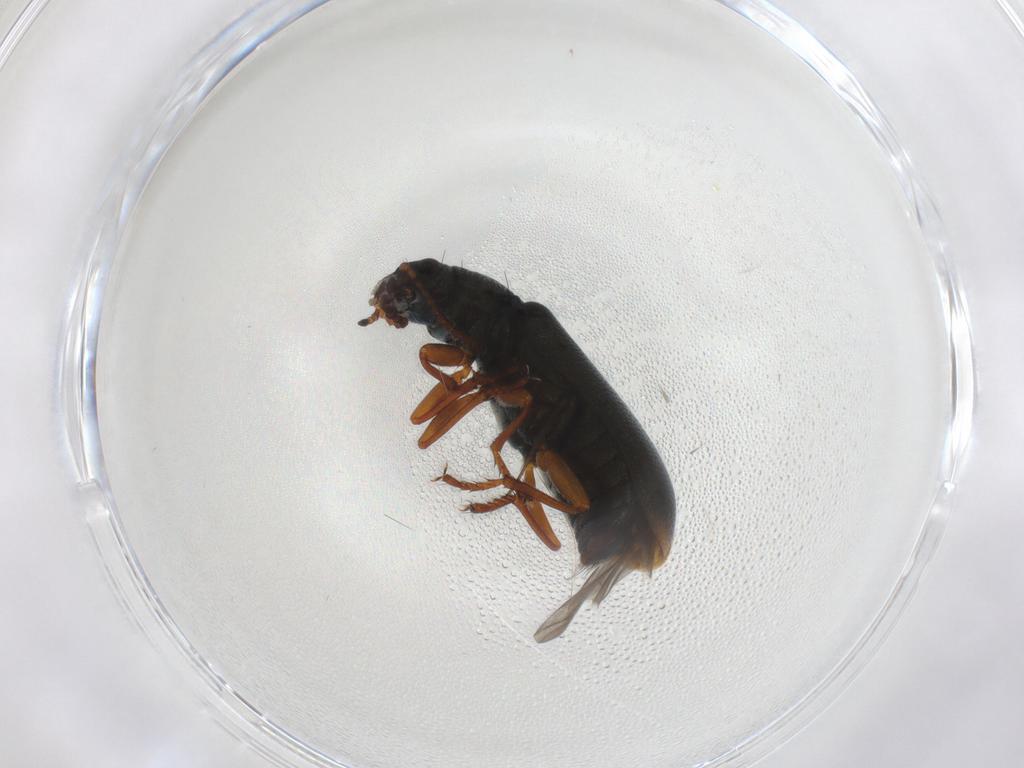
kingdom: Animalia
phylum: Arthropoda
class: Insecta
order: Coleoptera
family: Melyridae
